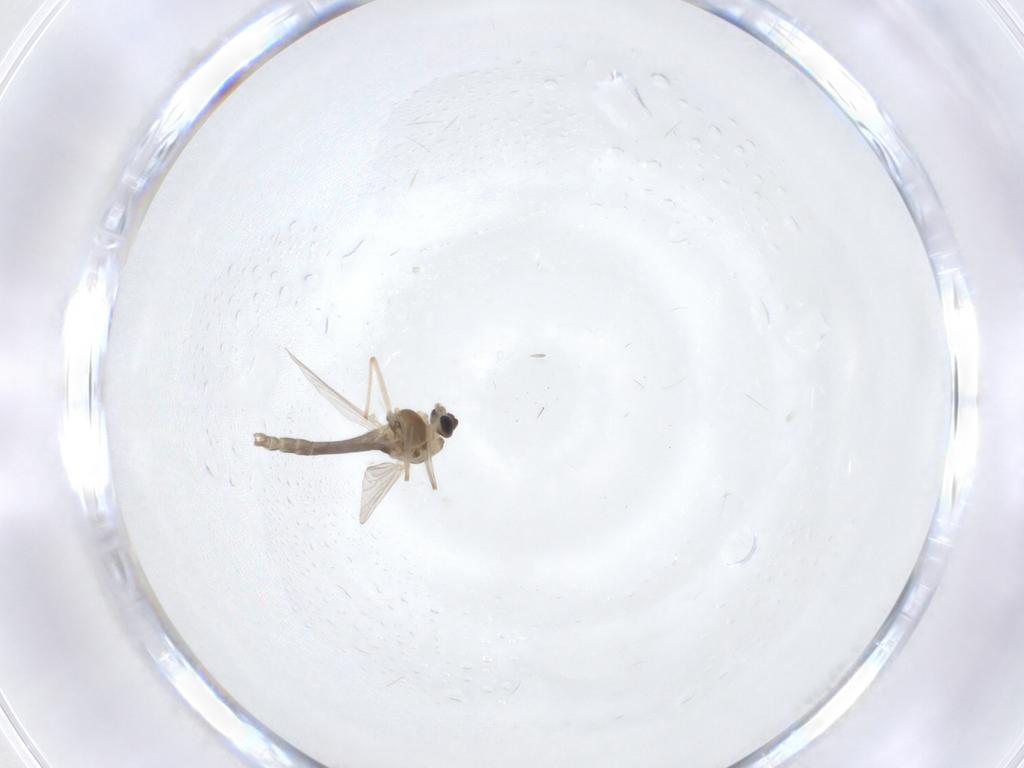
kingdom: Animalia
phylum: Arthropoda
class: Insecta
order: Diptera
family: Chironomidae
